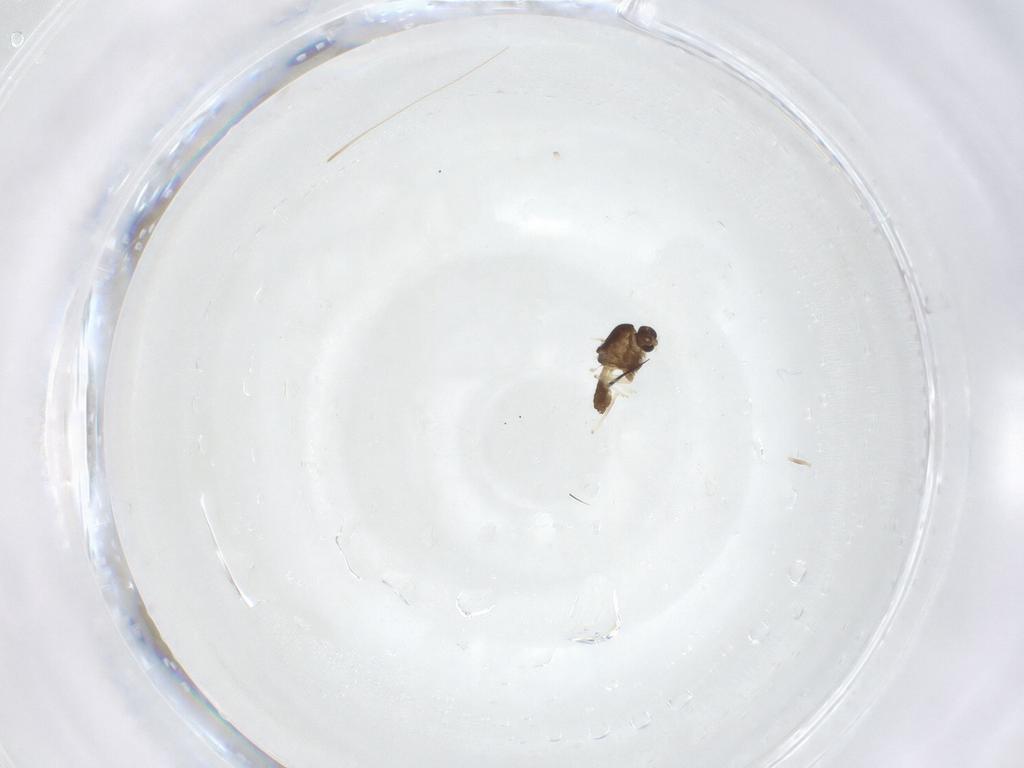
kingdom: Animalia
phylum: Arthropoda
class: Insecta
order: Diptera
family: Chironomidae
